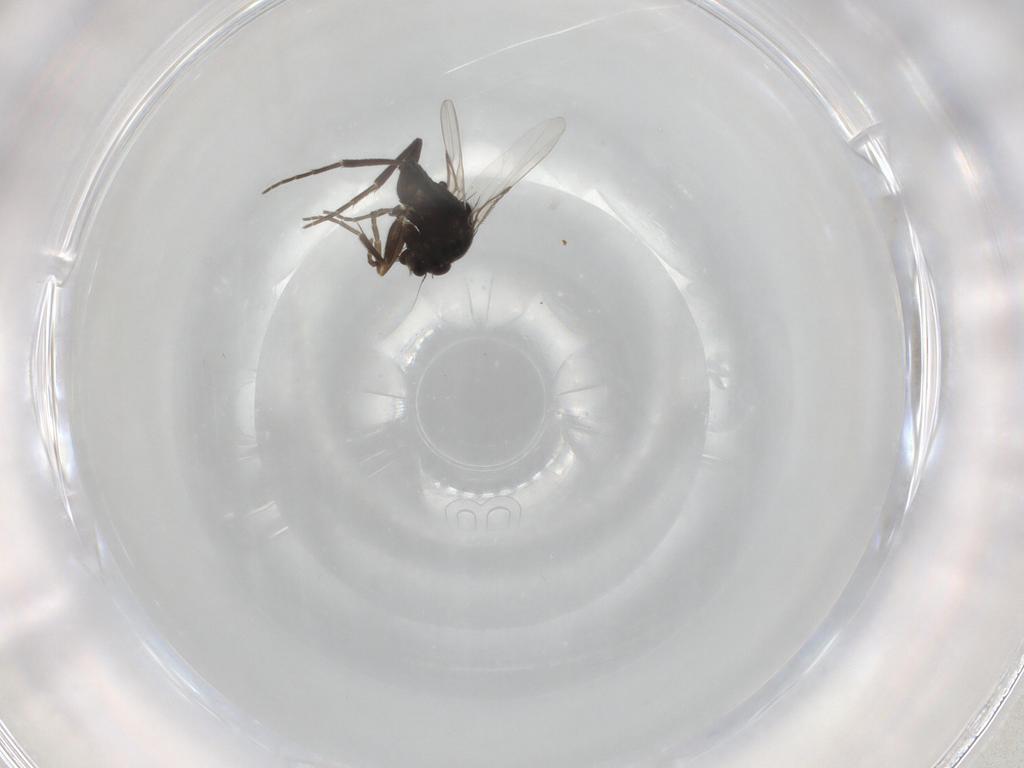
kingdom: Animalia
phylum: Arthropoda
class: Insecta
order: Diptera
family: Phoridae
